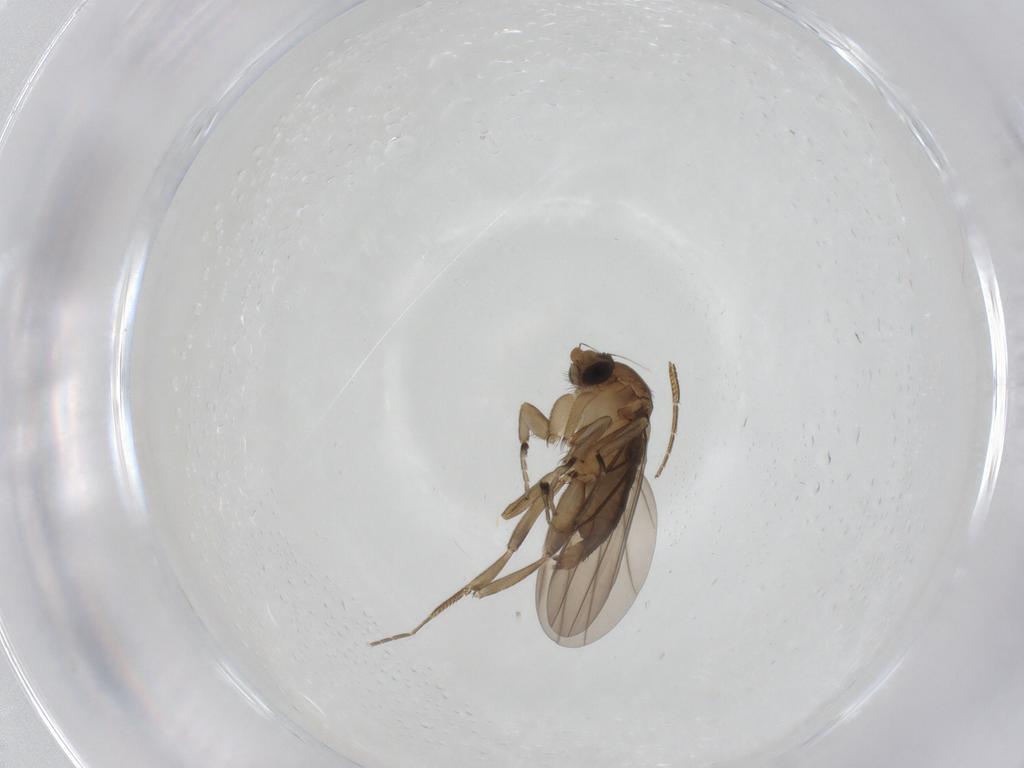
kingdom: Animalia
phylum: Arthropoda
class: Insecta
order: Diptera
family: Phoridae
